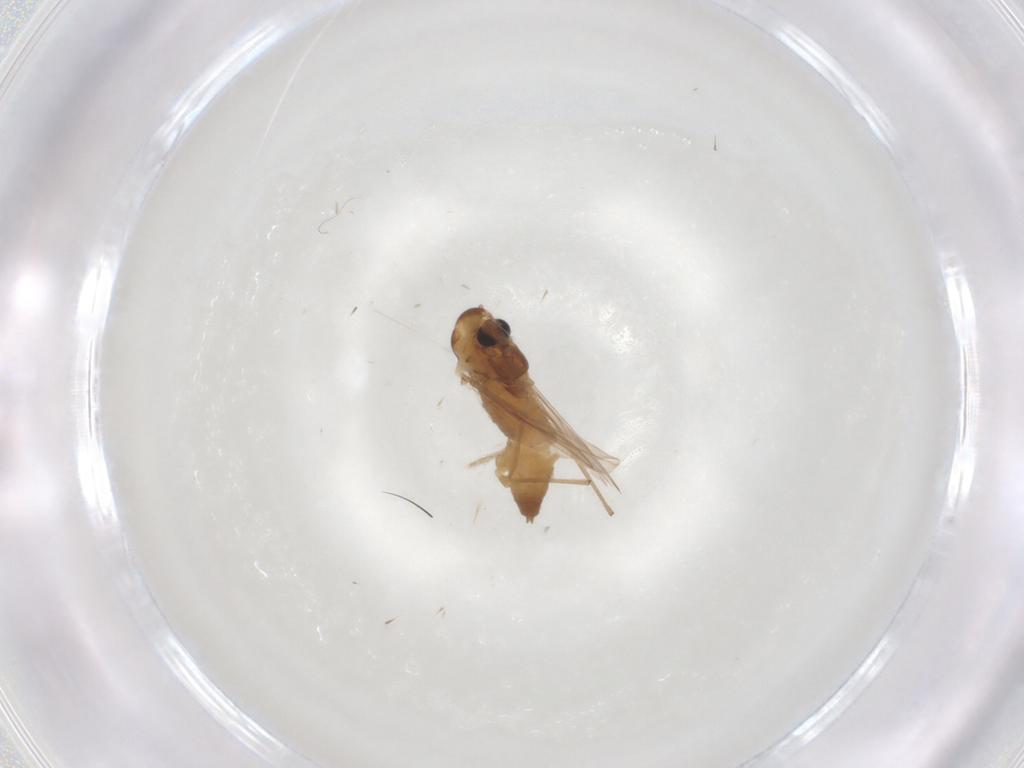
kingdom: Animalia
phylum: Arthropoda
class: Insecta
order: Diptera
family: Chironomidae
